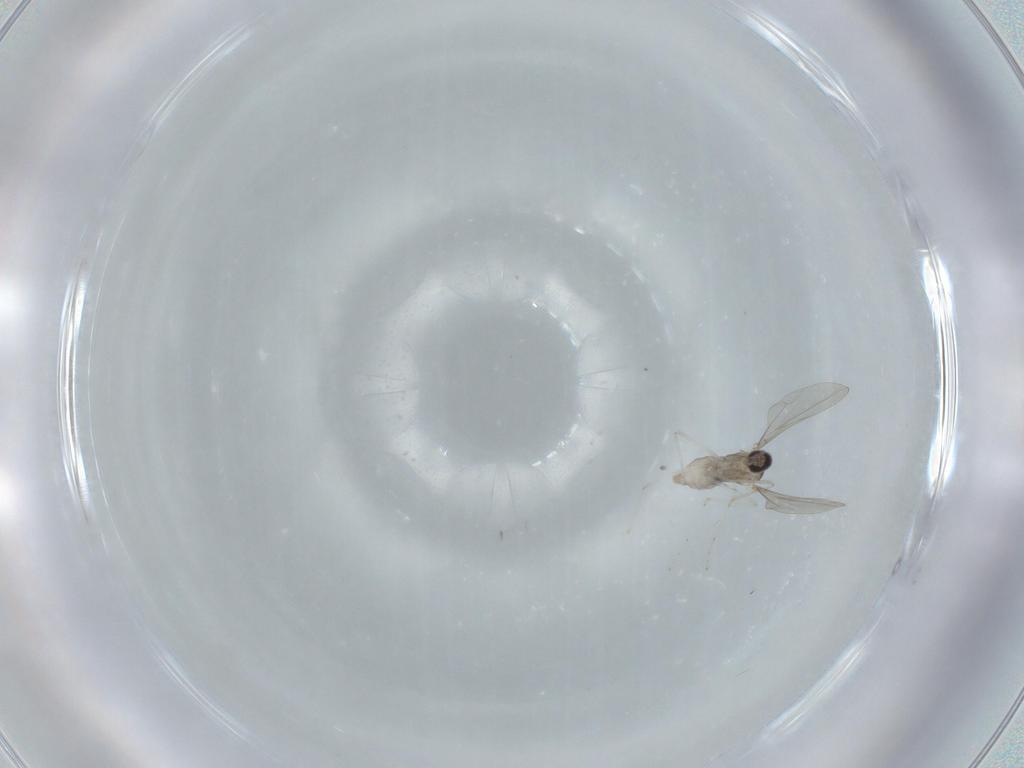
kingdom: Animalia
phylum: Arthropoda
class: Insecta
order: Diptera
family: Cecidomyiidae
